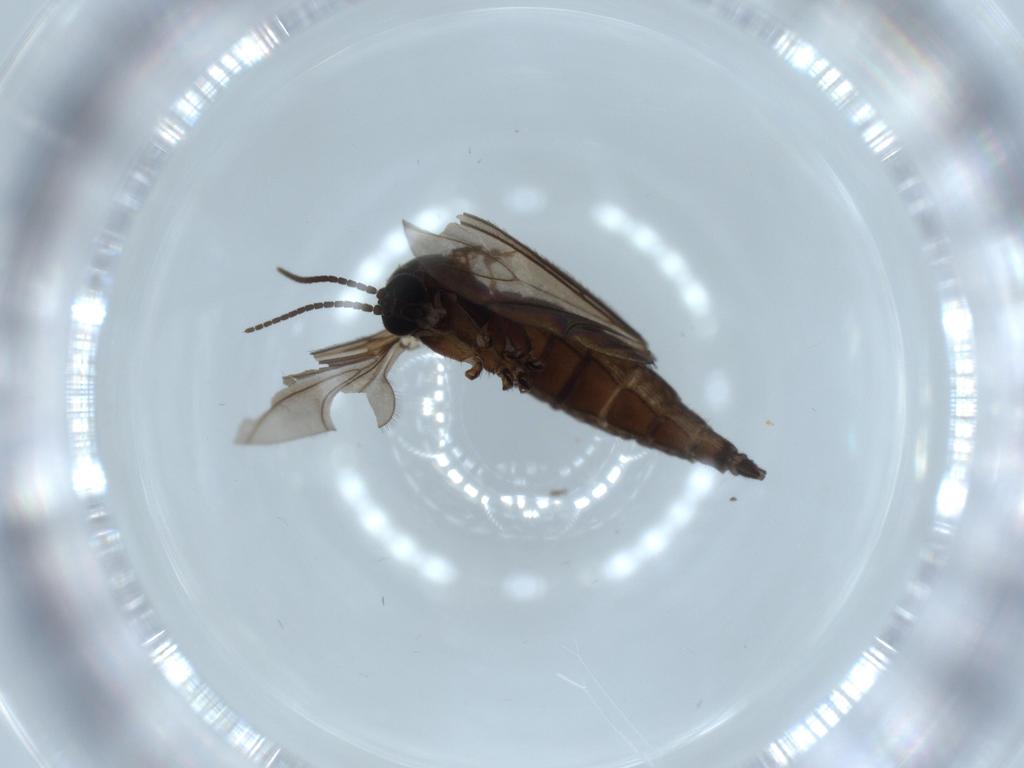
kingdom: Animalia
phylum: Arthropoda
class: Insecta
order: Diptera
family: Sciaridae
